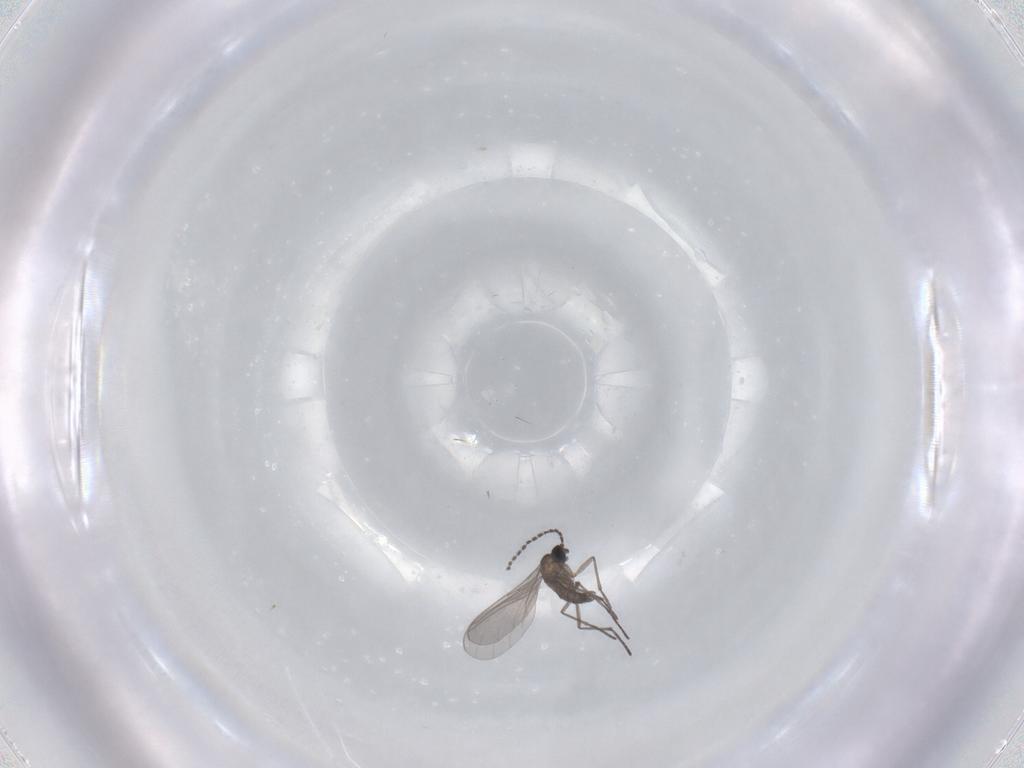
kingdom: Animalia
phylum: Arthropoda
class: Insecta
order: Diptera
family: Sciaridae
